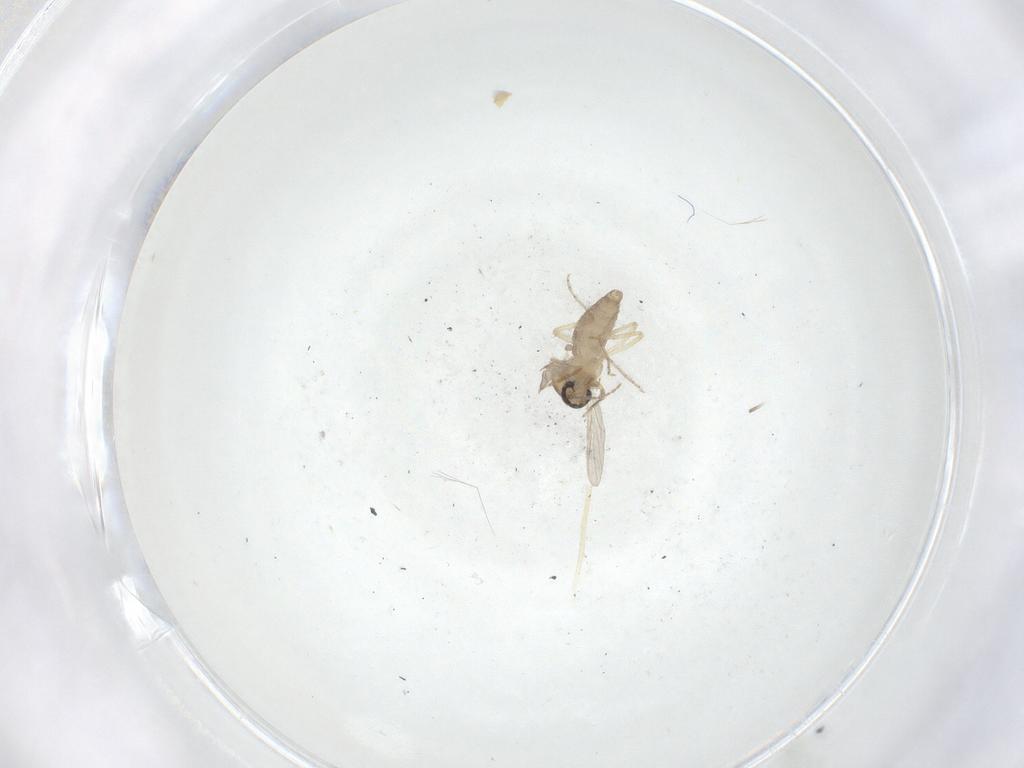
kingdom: Animalia
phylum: Arthropoda
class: Insecta
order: Diptera
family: Ceratopogonidae
